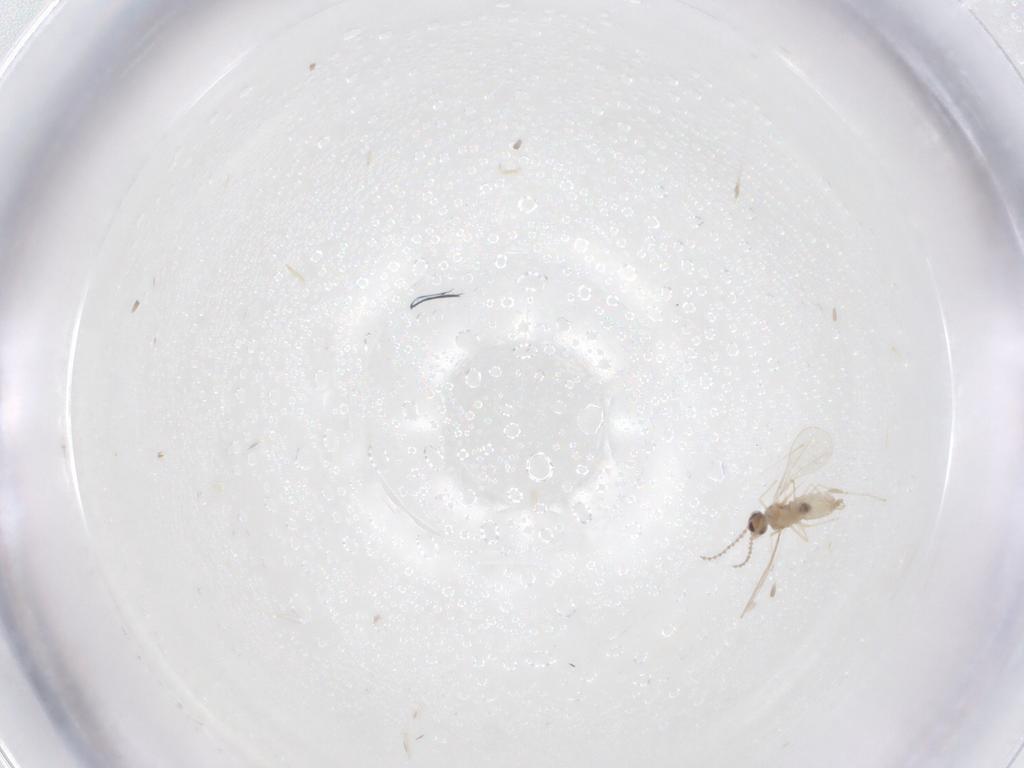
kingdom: Animalia
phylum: Arthropoda
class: Insecta
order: Diptera
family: Cecidomyiidae
